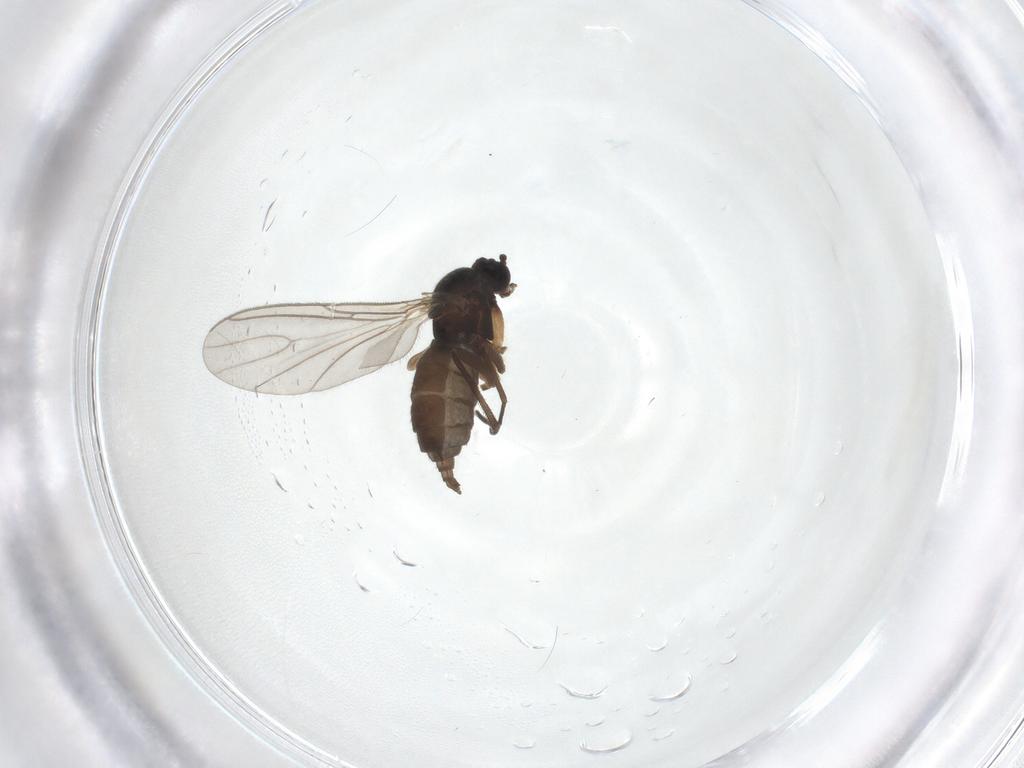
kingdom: Animalia
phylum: Arthropoda
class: Insecta
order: Diptera
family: Sciaridae
